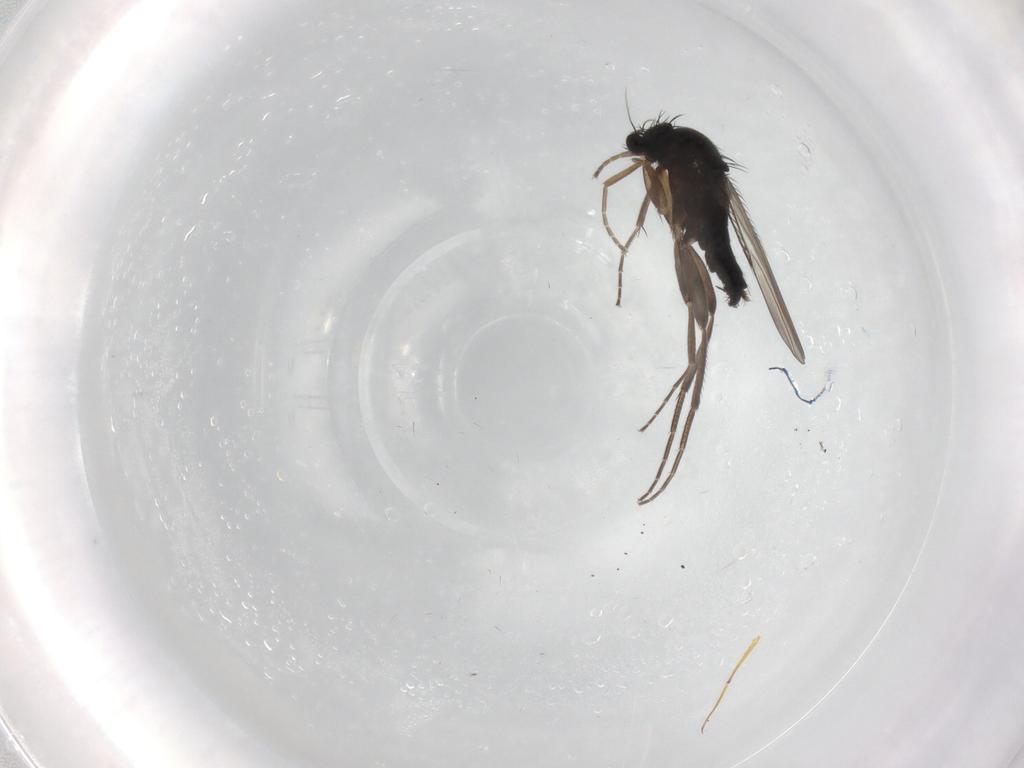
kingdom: Animalia
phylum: Arthropoda
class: Insecta
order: Diptera
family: Phoridae
